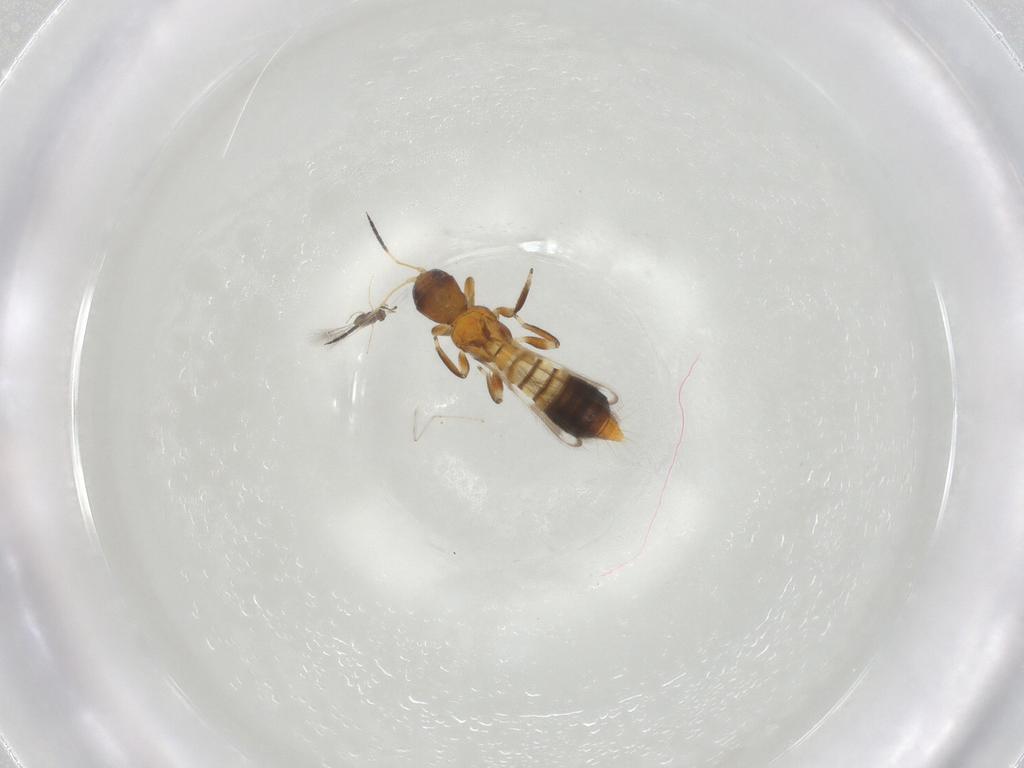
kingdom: Animalia
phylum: Arthropoda
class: Insecta
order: Thysanoptera
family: Aeolothripidae
